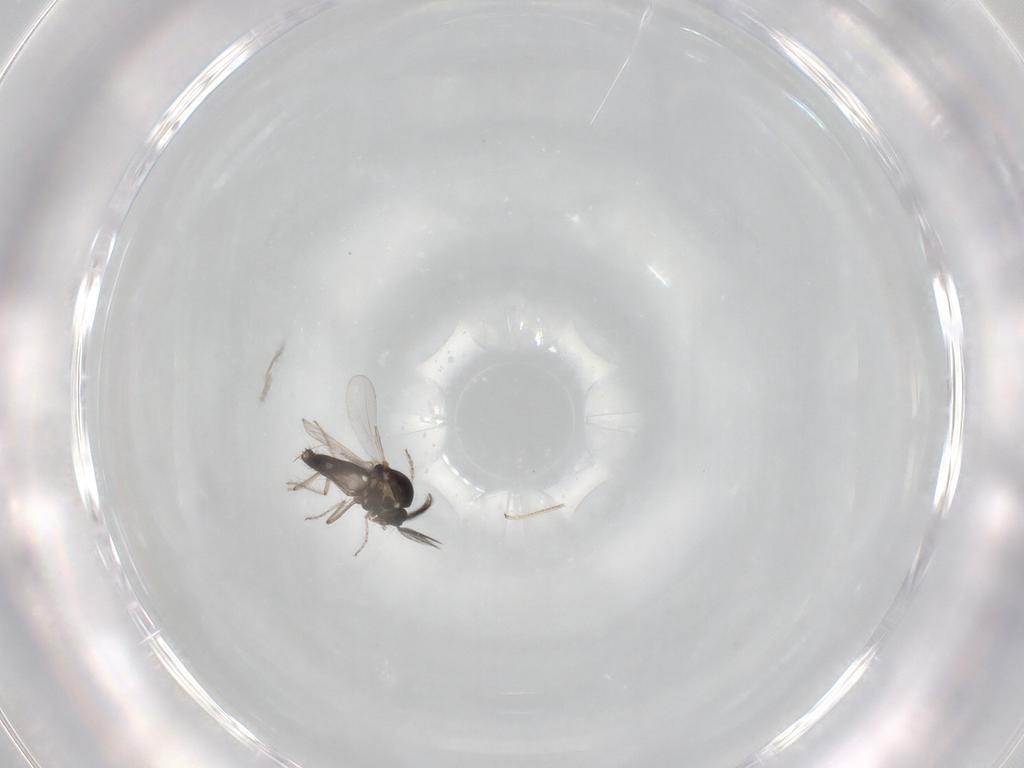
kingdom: Animalia
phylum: Arthropoda
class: Insecta
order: Diptera
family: Ceratopogonidae
